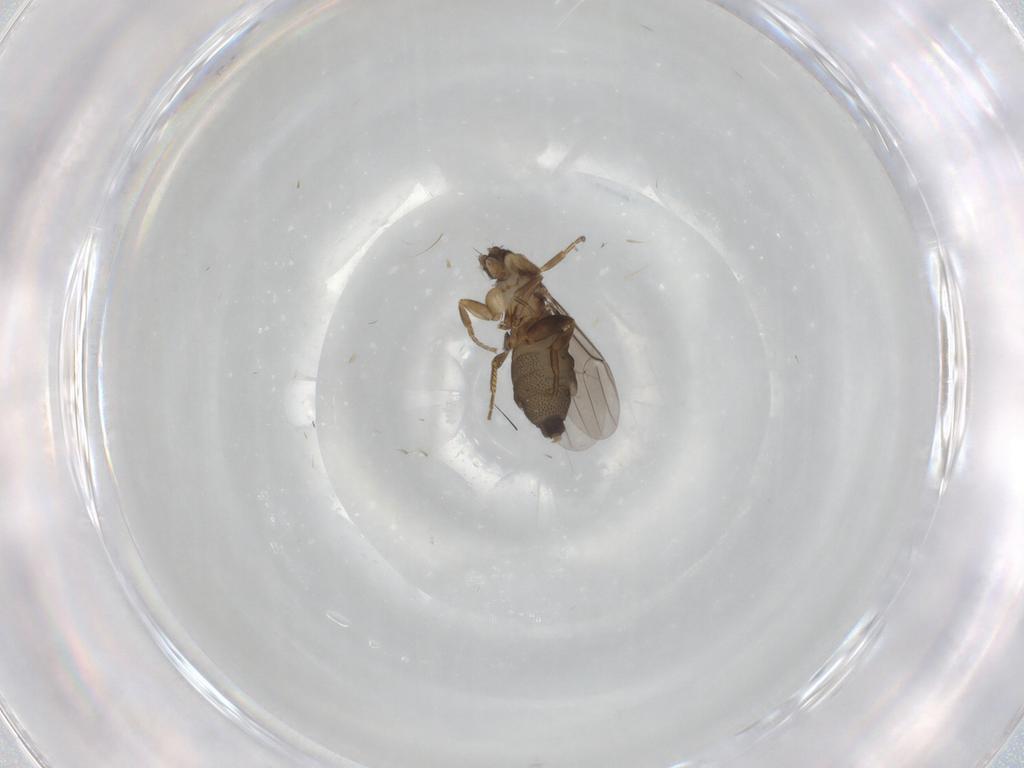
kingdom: Animalia
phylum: Arthropoda
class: Insecta
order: Diptera
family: Phoridae
